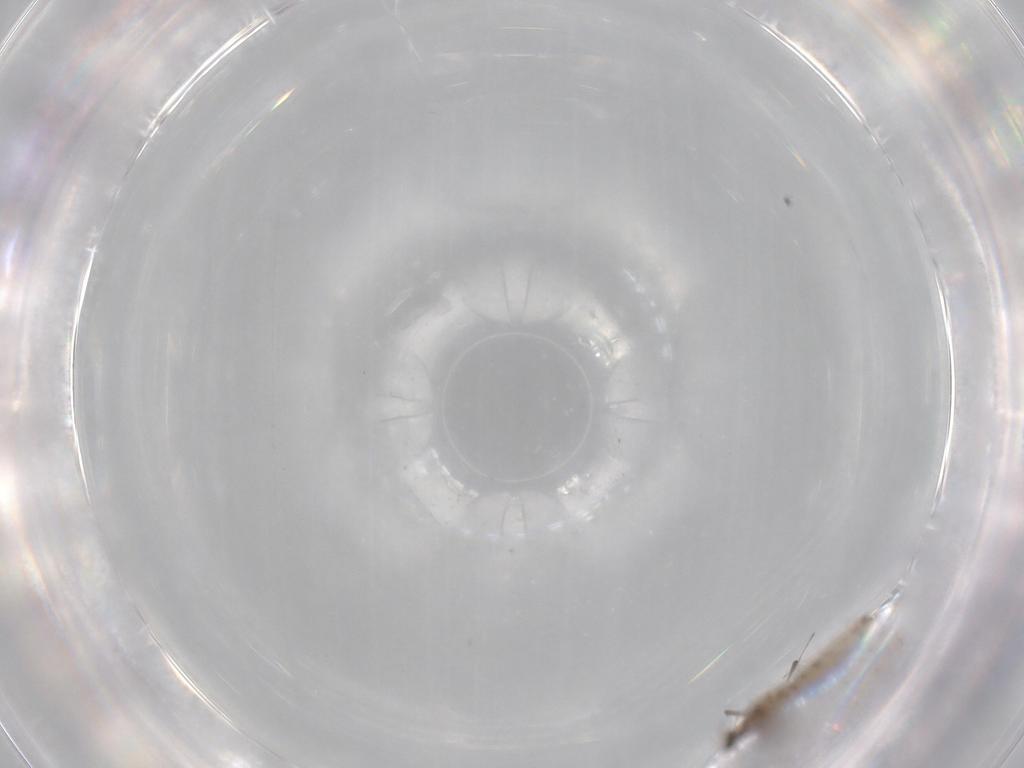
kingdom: Animalia
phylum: Arthropoda
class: Insecta
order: Diptera
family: Cecidomyiidae
